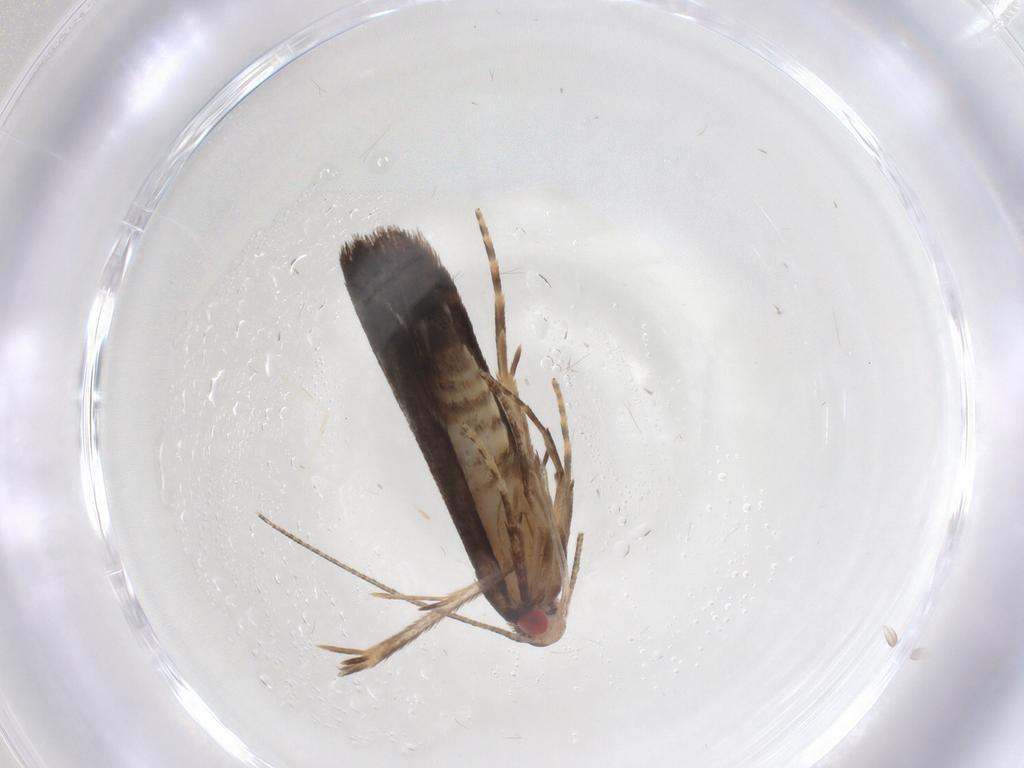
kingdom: Animalia
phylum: Arthropoda
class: Insecta
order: Lepidoptera
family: Gelechiidae
